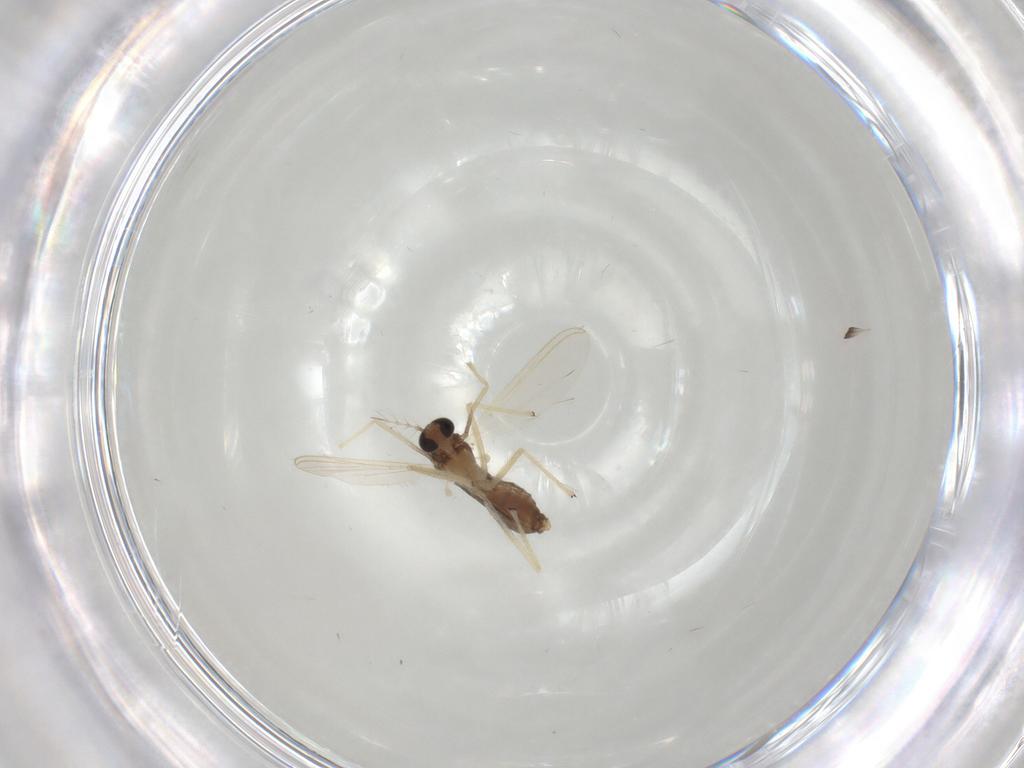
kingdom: Animalia
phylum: Arthropoda
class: Insecta
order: Diptera
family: Chironomidae
